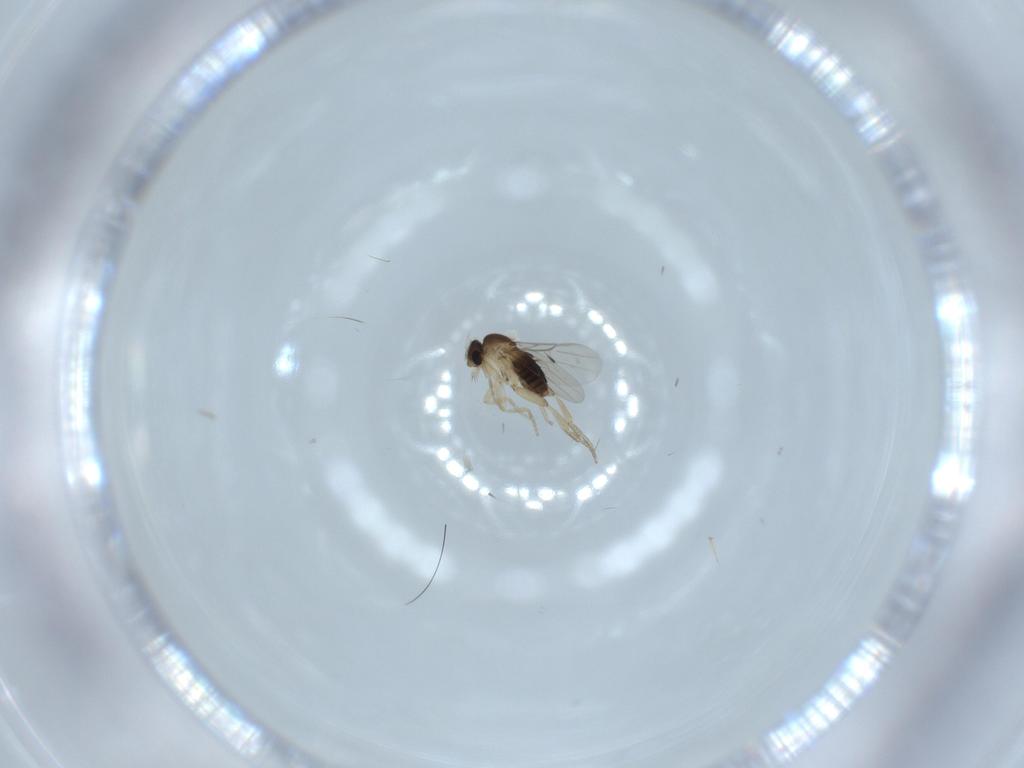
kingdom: Animalia
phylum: Arthropoda
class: Insecta
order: Diptera
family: Cecidomyiidae
